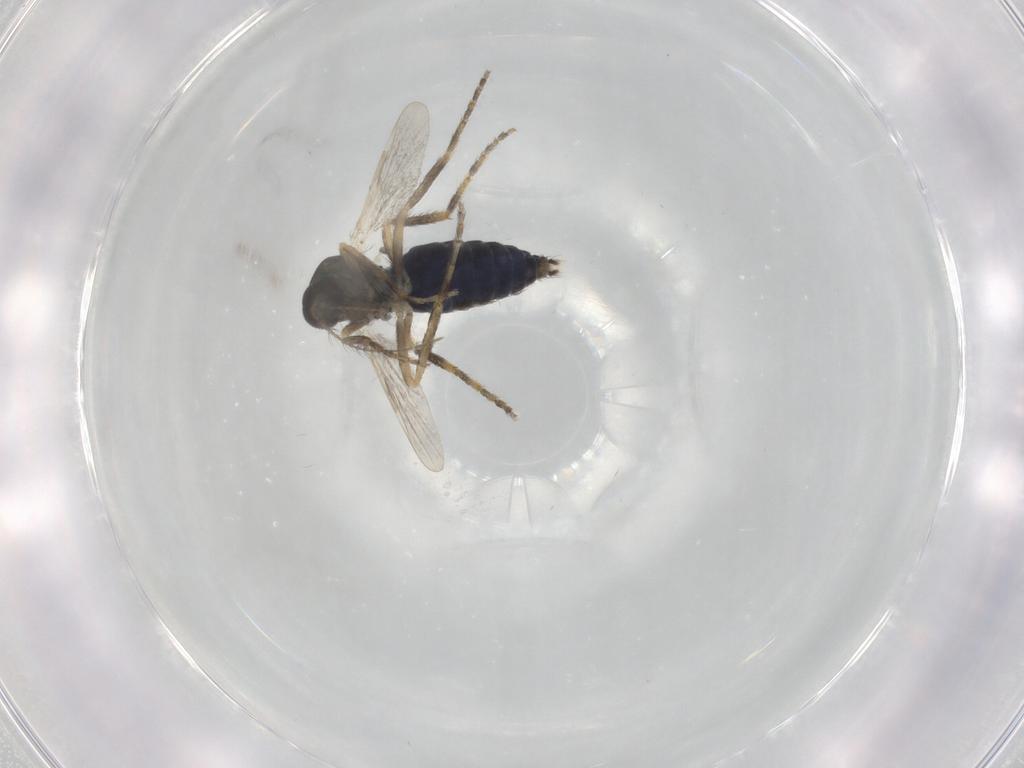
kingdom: Animalia
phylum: Arthropoda
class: Insecta
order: Diptera
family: Ceratopogonidae
